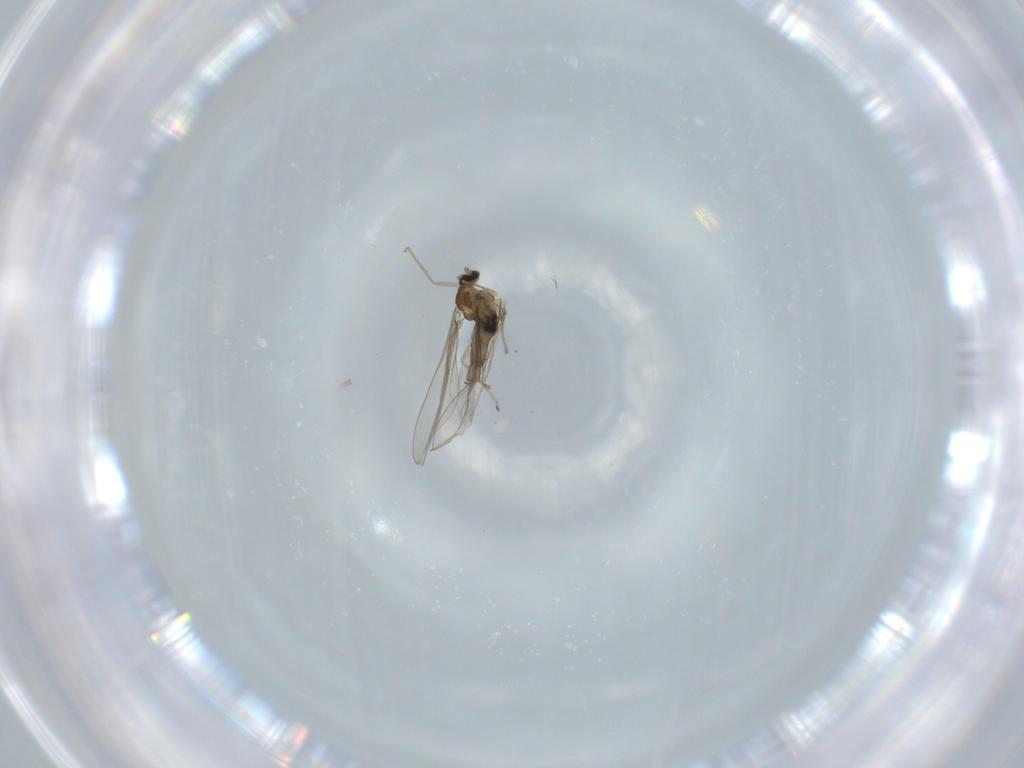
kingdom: Animalia
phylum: Arthropoda
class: Insecta
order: Diptera
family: Cecidomyiidae
